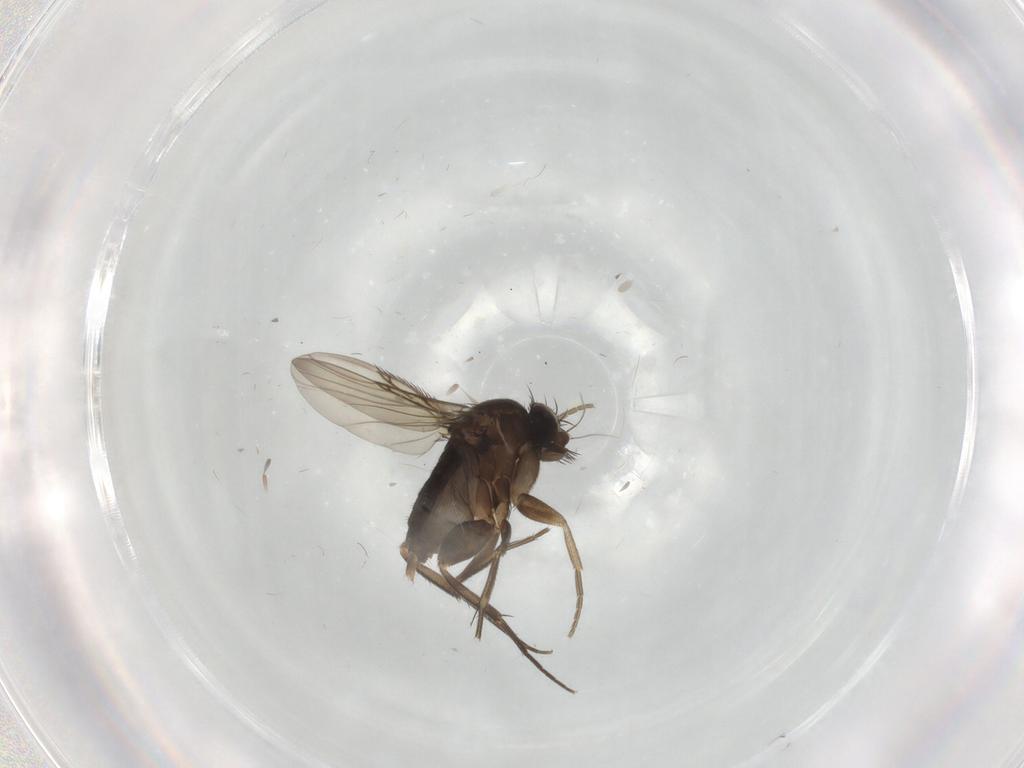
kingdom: Animalia
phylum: Arthropoda
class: Insecta
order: Diptera
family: Phoridae
